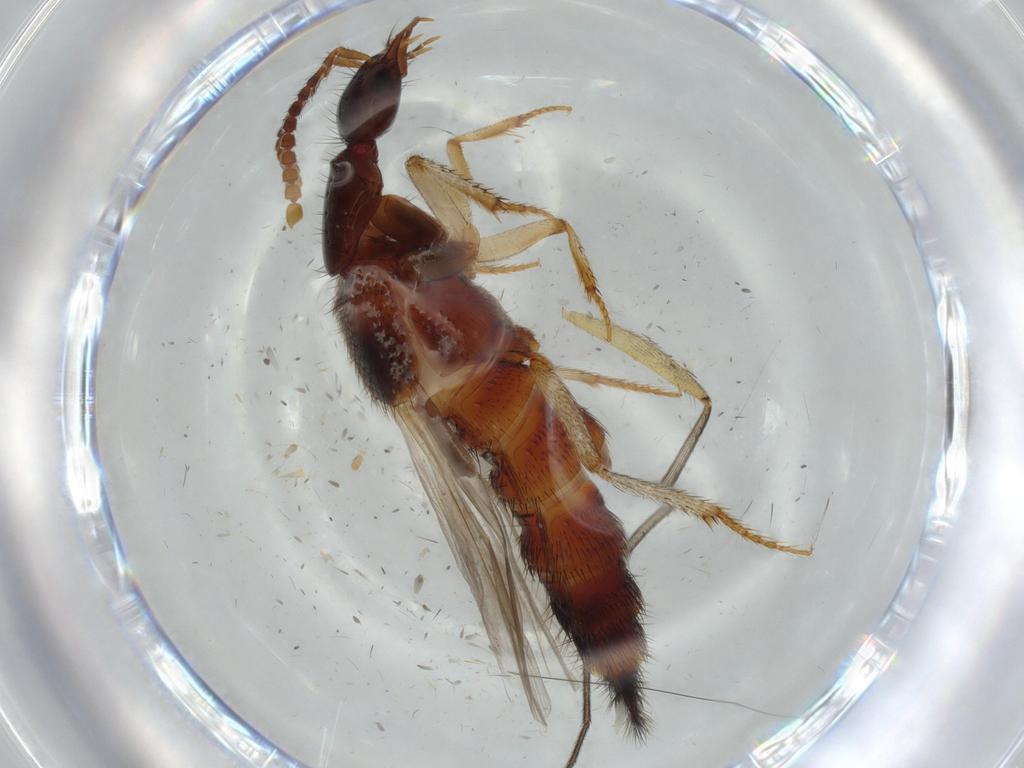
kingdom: Animalia
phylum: Arthropoda
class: Insecta
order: Coleoptera
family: Staphylinidae
